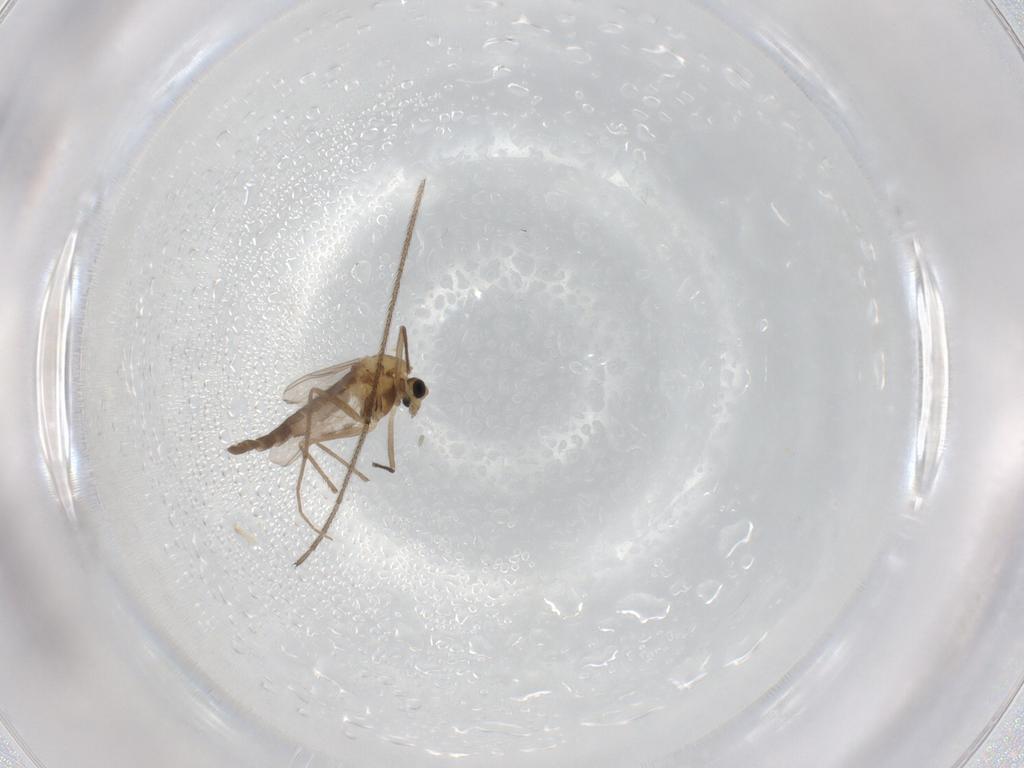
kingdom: Animalia
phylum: Arthropoda
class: Insecta
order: Diptera
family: Chironomidae
